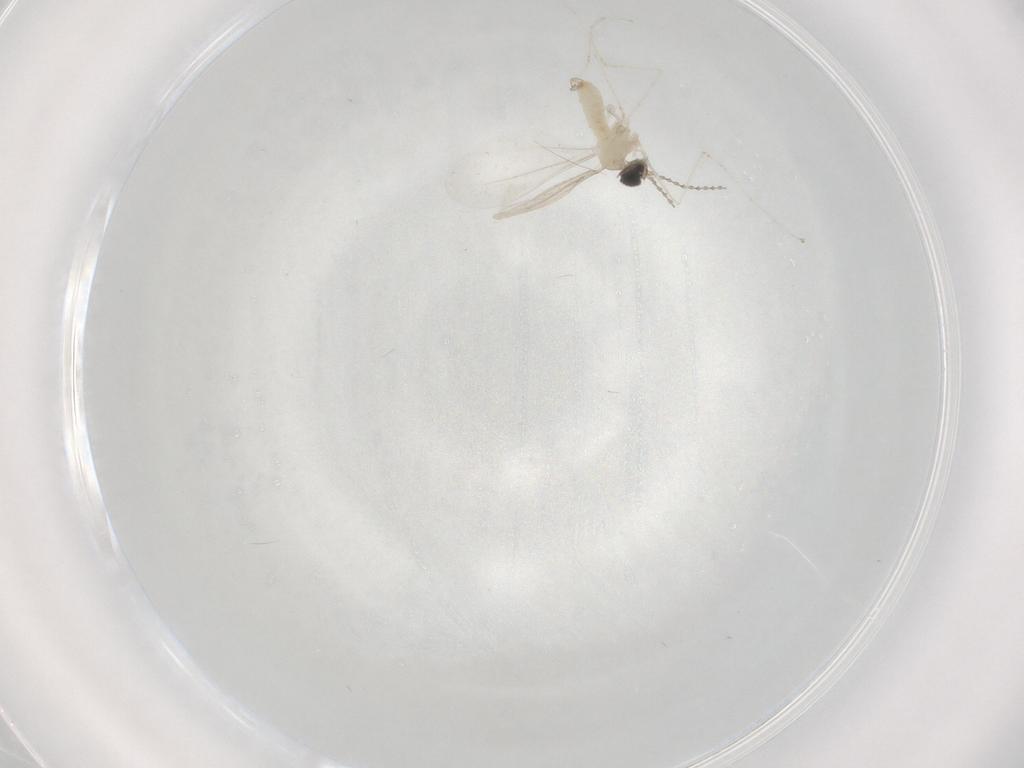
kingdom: Animalia
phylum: Arthropoda
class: Insecta
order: Diptera
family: Cecidomyiidae
